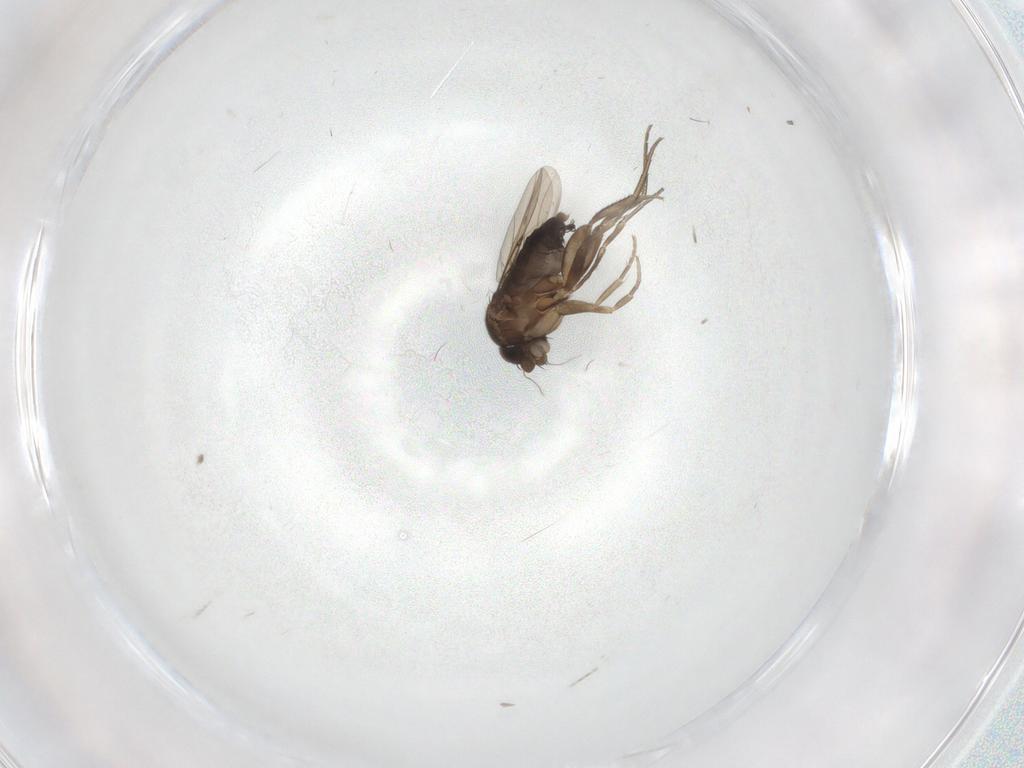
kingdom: Animalia
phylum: Arthropoda
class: Insecta
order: Diptera
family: Phoridae
